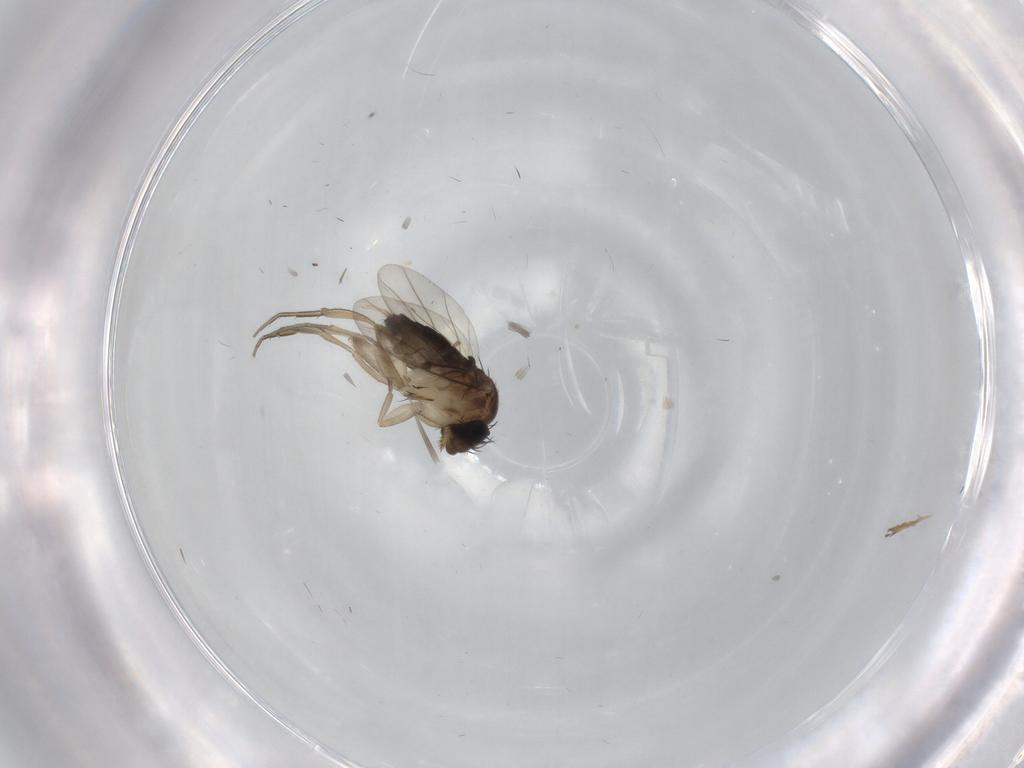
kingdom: Animalia
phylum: Arthropoda
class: Insecta
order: Diptera
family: Phoridae
